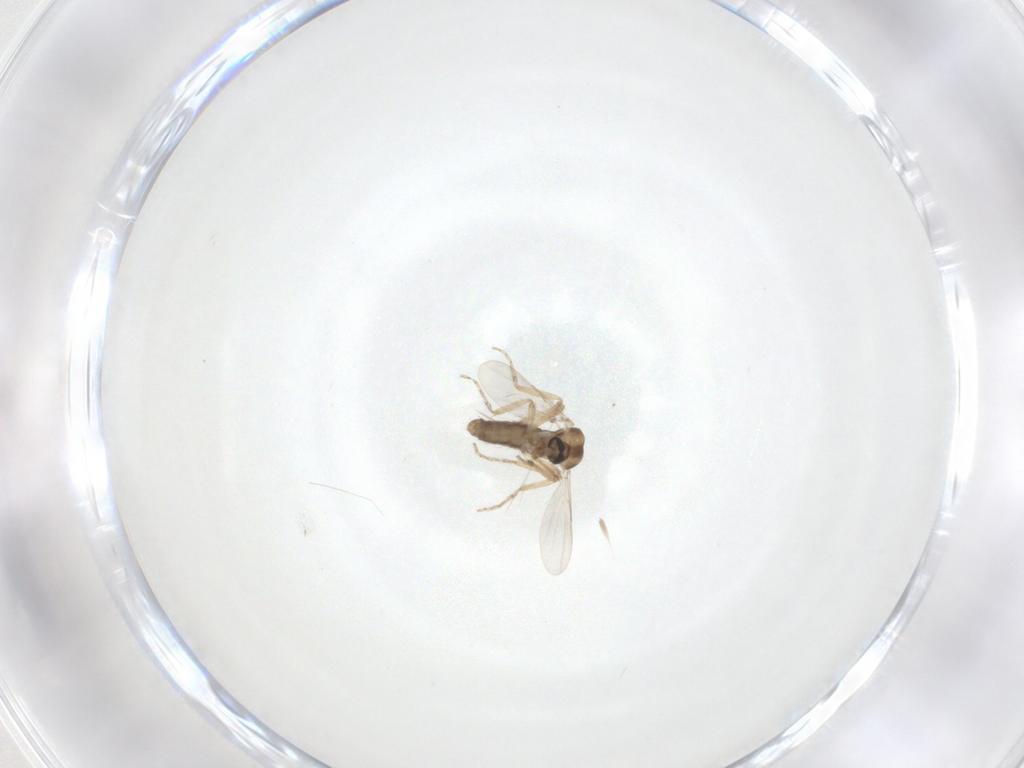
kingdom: Animalia
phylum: Arthropoda
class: Insecta
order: Diptera
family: Ceratopogonidae
